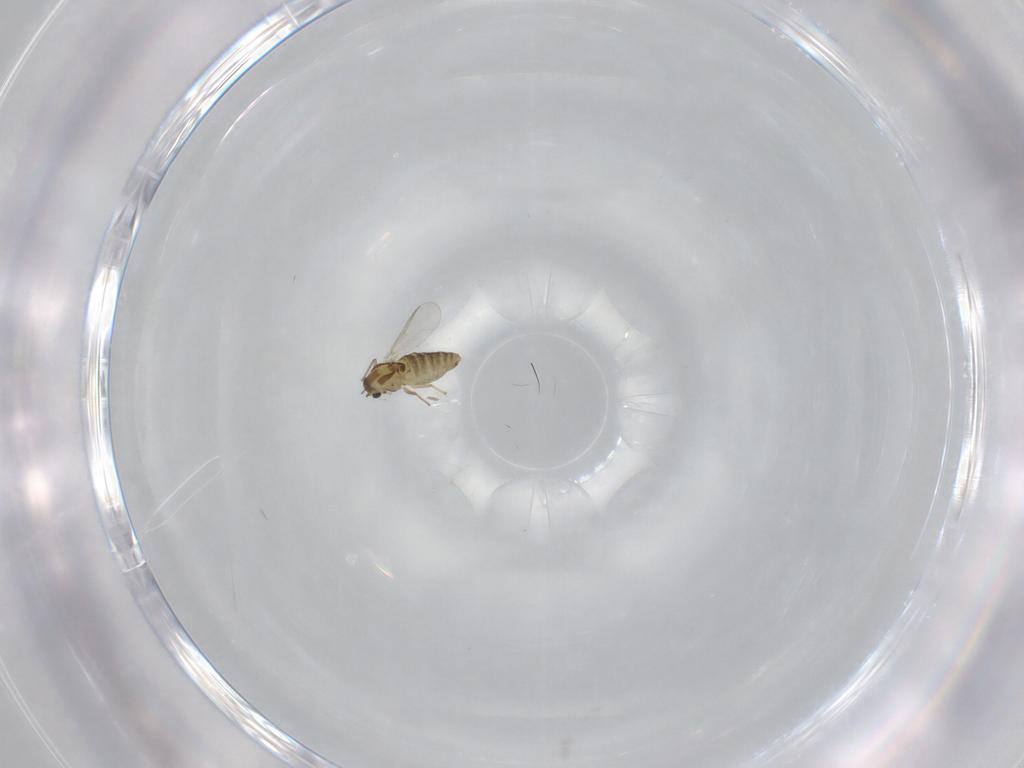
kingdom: Animalia
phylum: Arthropoda
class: Insecta
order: Diptera
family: Chironomidae
